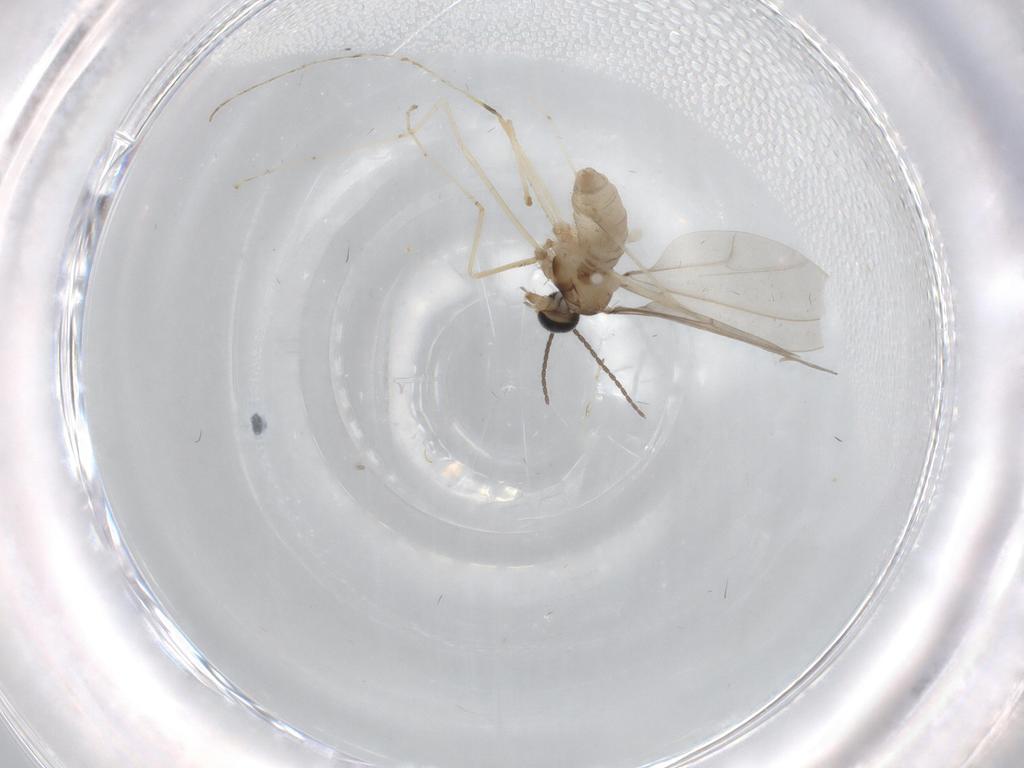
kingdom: Animalia
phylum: Arthropoda
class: Insecta
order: Diptera
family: Cecidomyiidae
